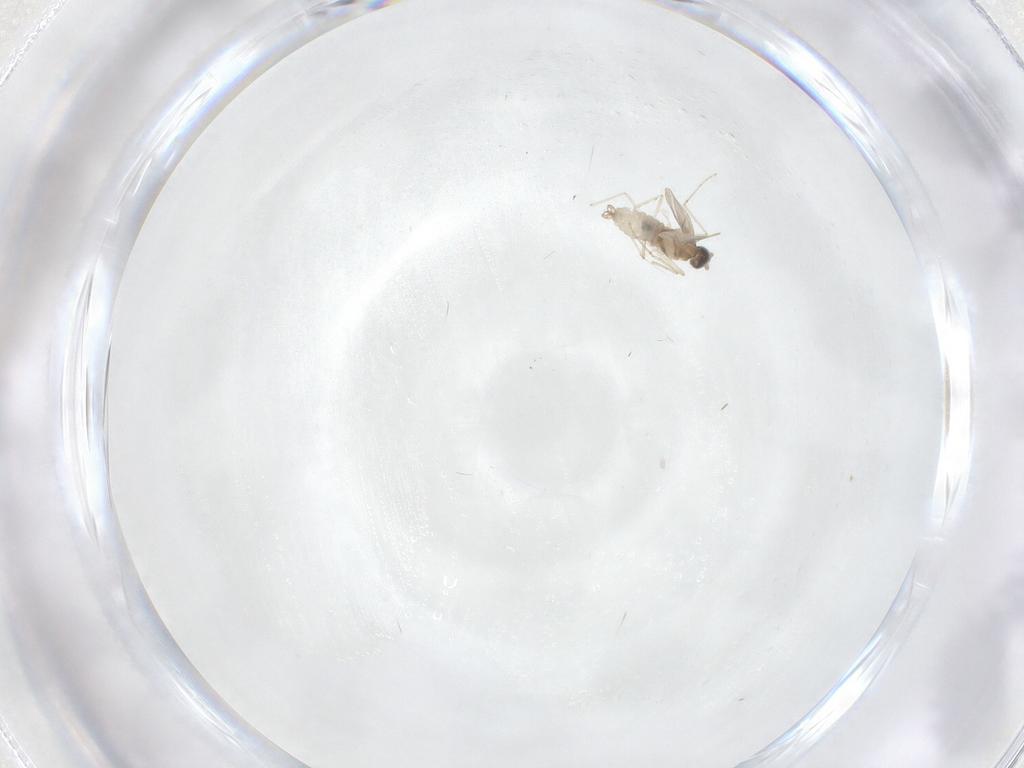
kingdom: Animalia
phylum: Arthropoda
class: Insecta
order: Diptera
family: Cecidomyiidae
